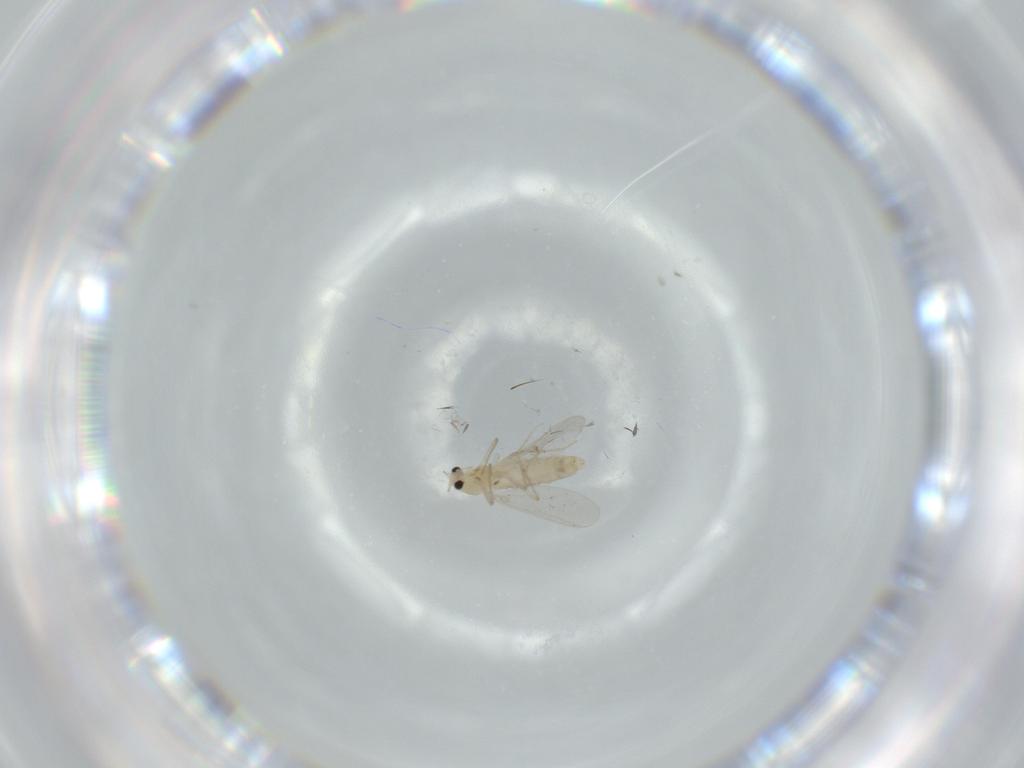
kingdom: Animalia
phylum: Arthropoda
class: Insecta
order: Diptera
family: Chironomidae
